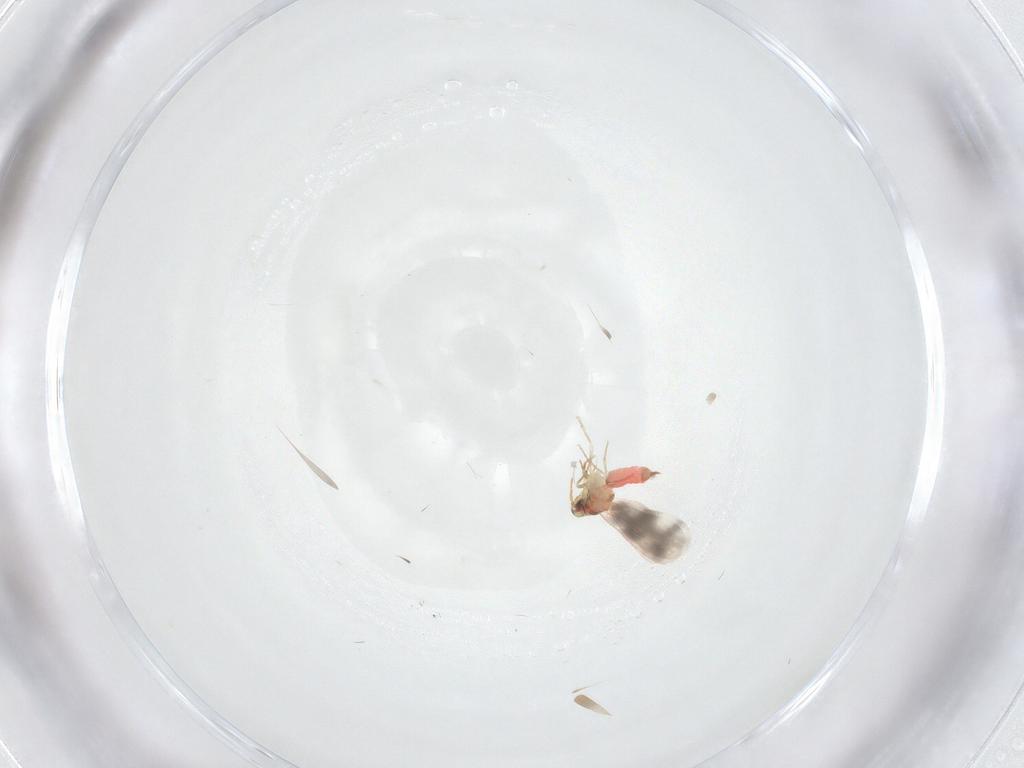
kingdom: Animalia
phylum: Arthropoda
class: Insecta
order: Hemiptera
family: Aleyrodidae
